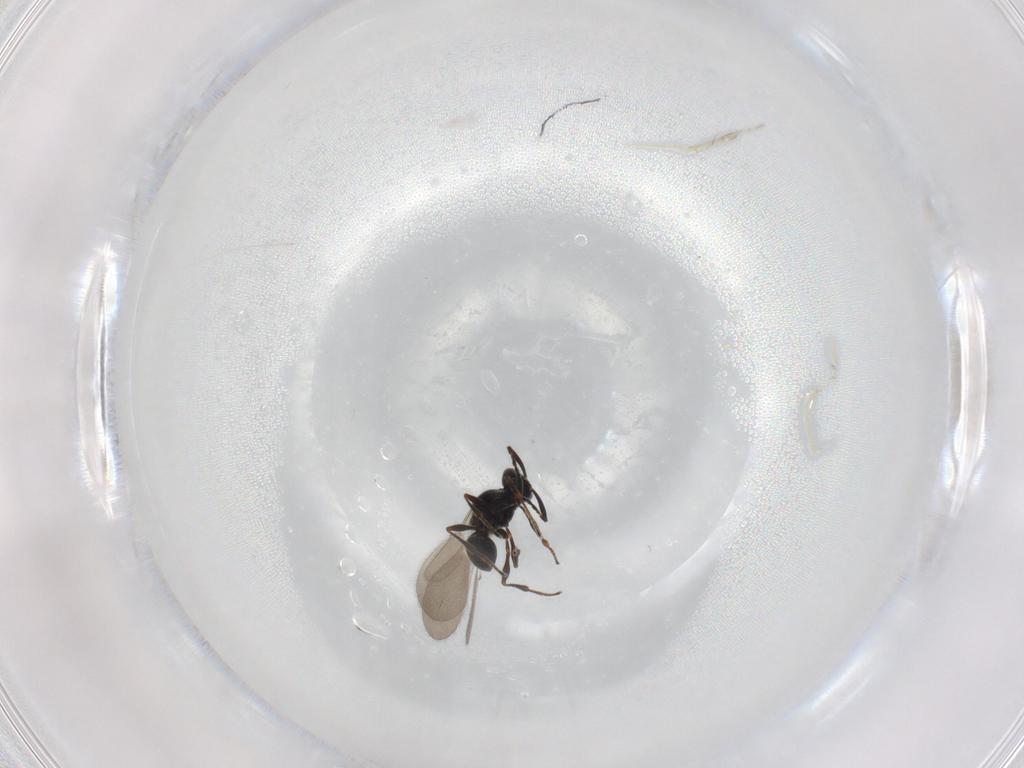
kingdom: Animalia
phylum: Arthropoda
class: Insecta
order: Hymenoptera
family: Platygastridae
